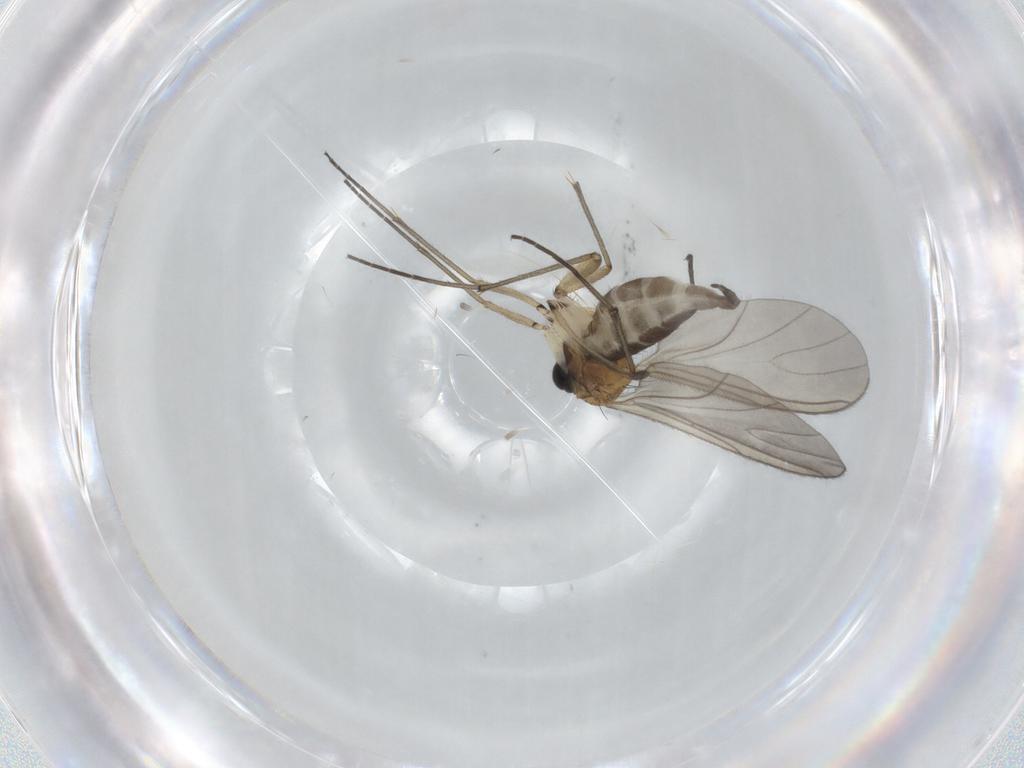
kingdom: Animalia
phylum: Arthropoda
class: Insecta
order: Diptera
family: Sciaridae
